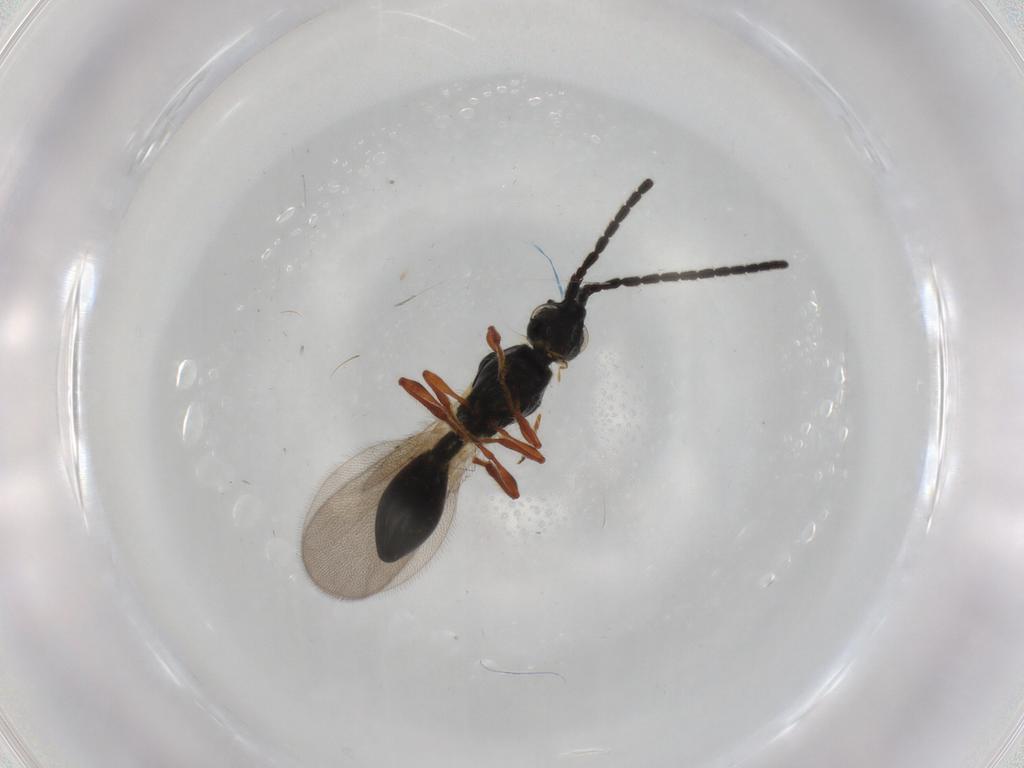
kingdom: Animalia
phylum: Arthropoda
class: Insecta
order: Hymenoptera
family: Diapriidae
